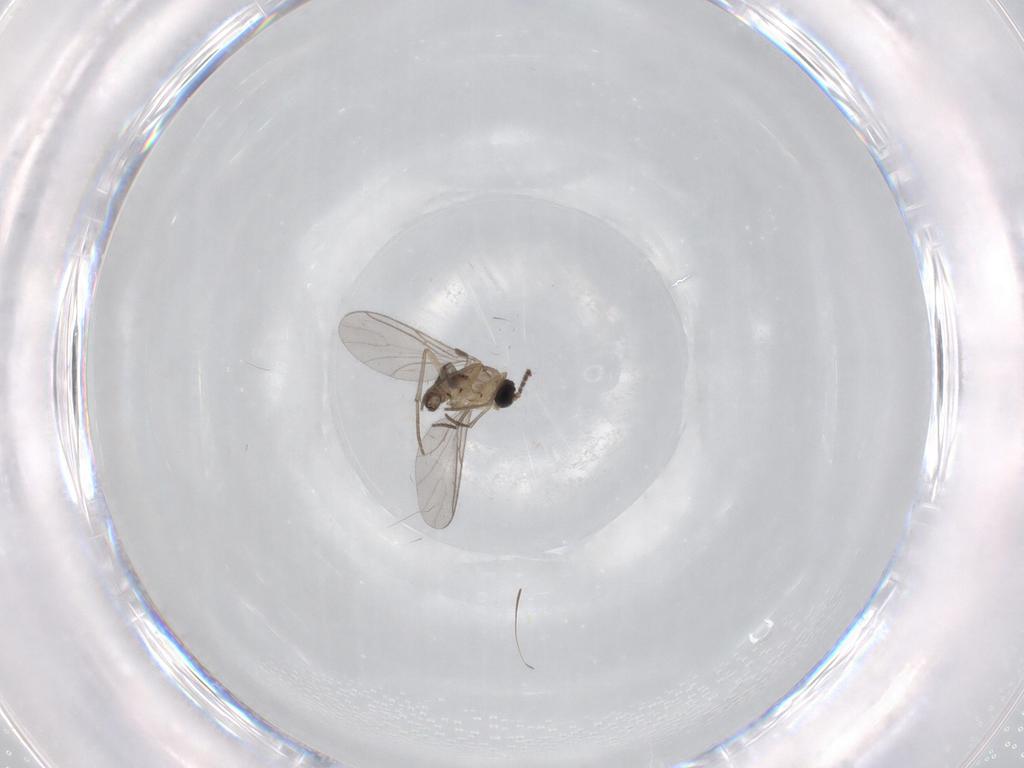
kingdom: Animalia
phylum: Arthropoda
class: Insecta
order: Diptera
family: Sciaridae
